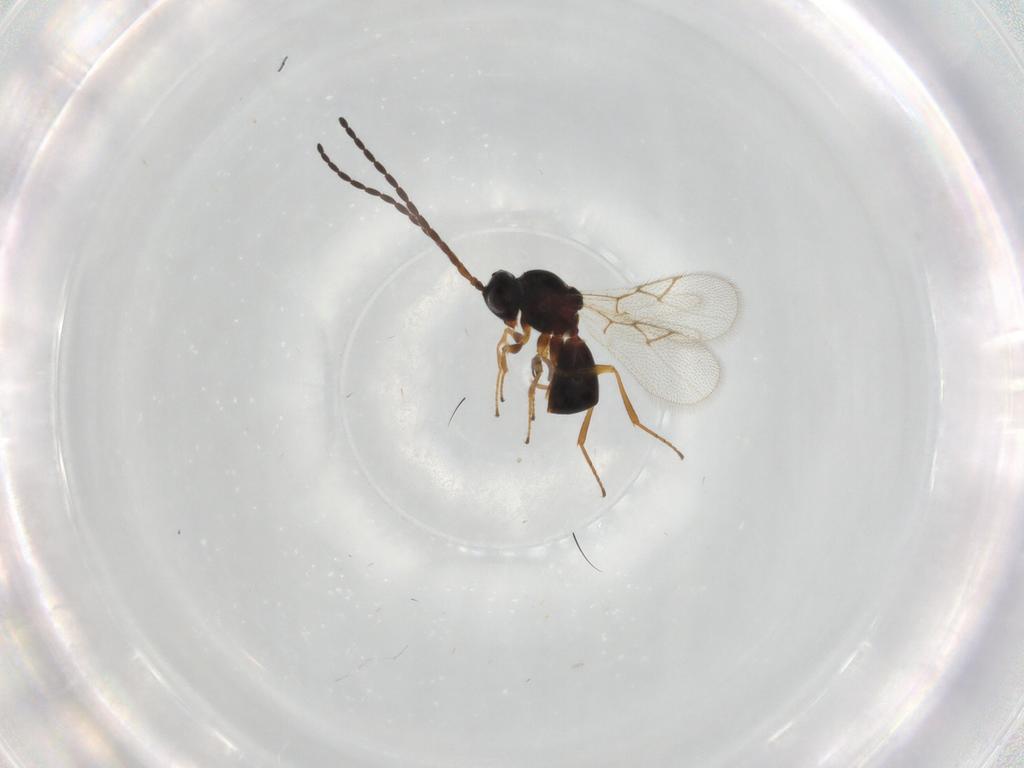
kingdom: Animalia
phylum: Arthropoda
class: Insecta
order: Hymenoptera
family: Figitidae
